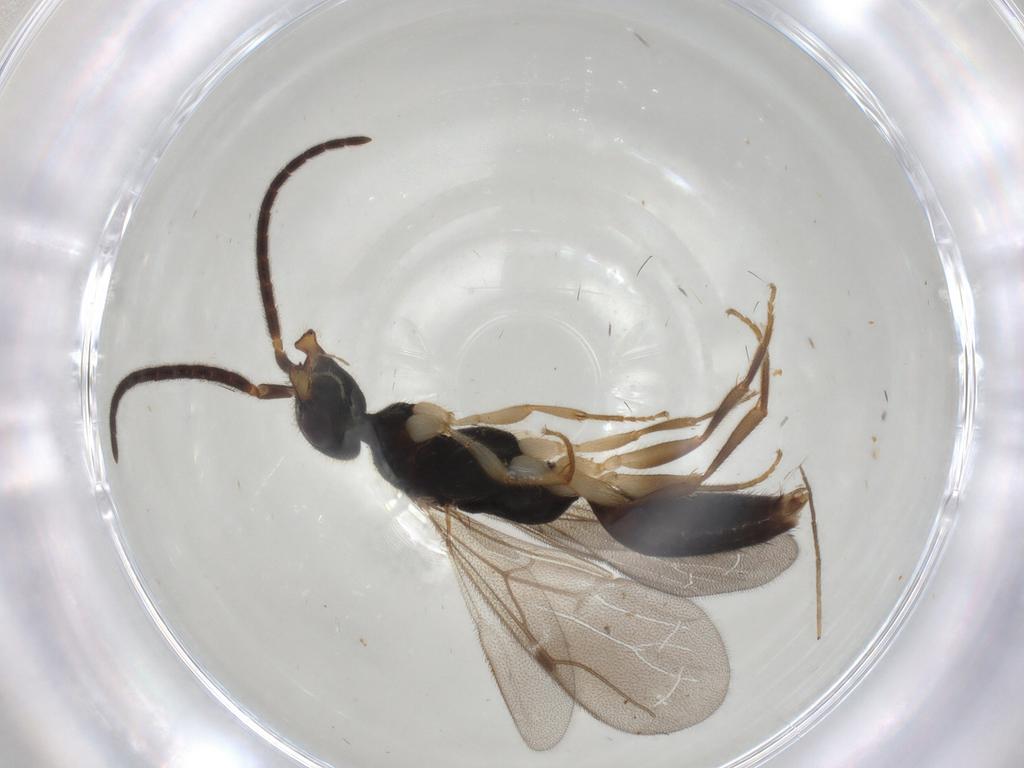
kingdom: Animalia
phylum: Arthropoda
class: Insecta
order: Hymenoptera
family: Bethylidae
